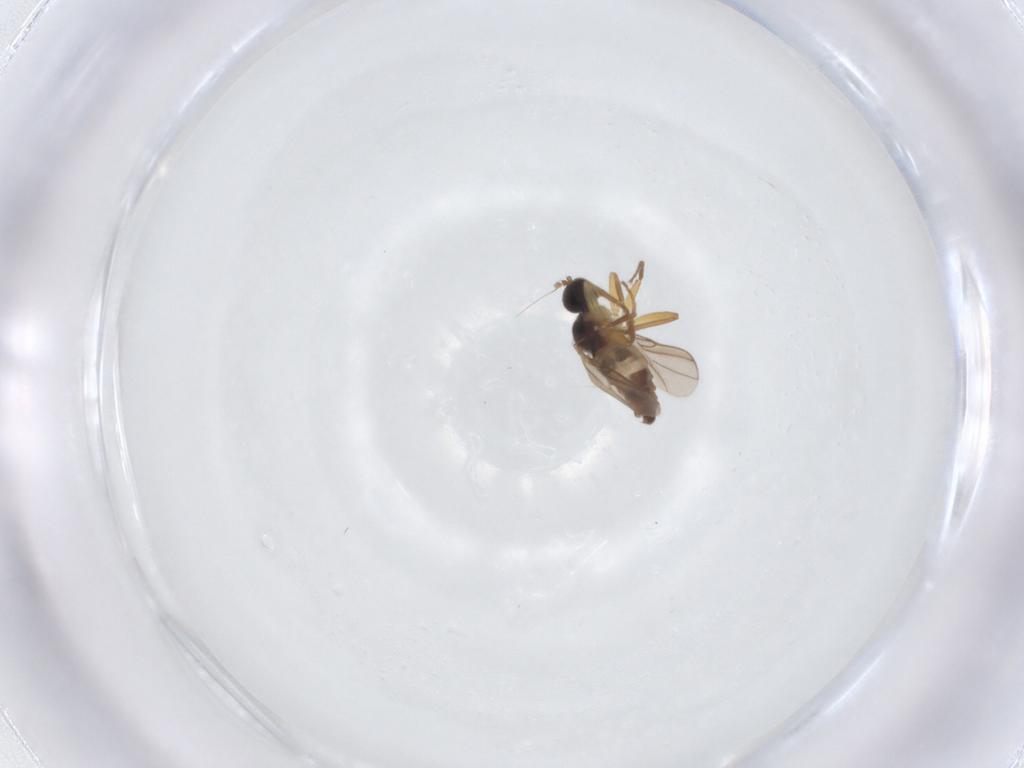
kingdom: Animalia
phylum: Arthropoda
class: Insecta
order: Diptera
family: Hybotidae
